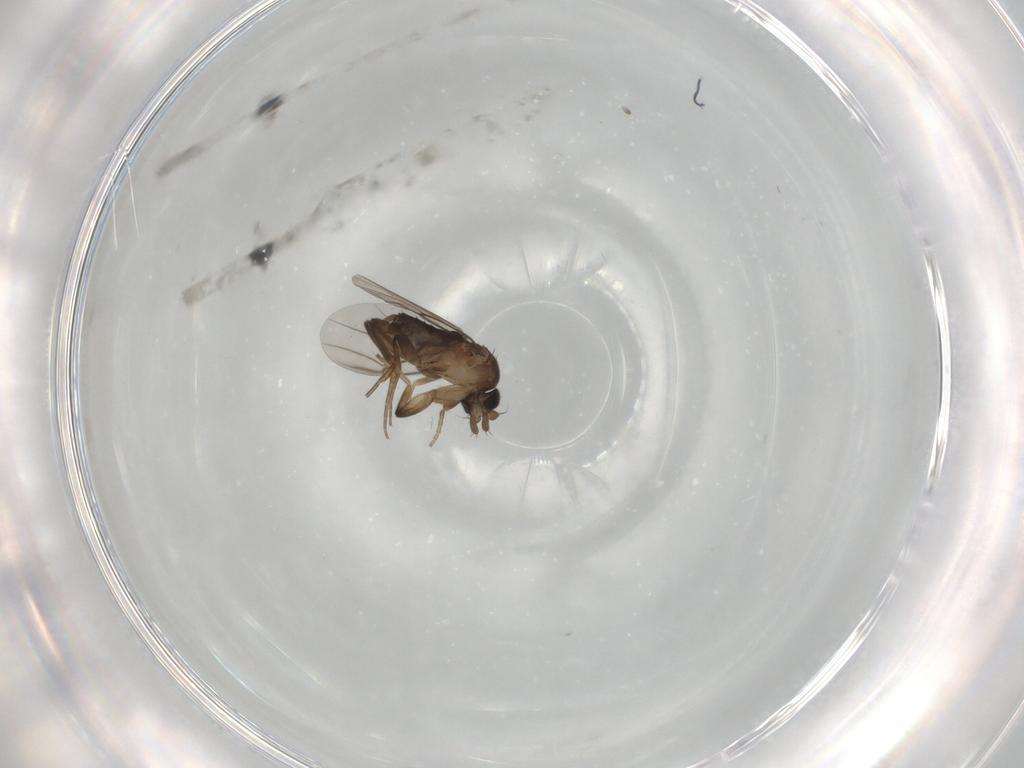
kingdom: Animalia
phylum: Arthropoda
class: Insecta
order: Diptera
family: Phoridae
